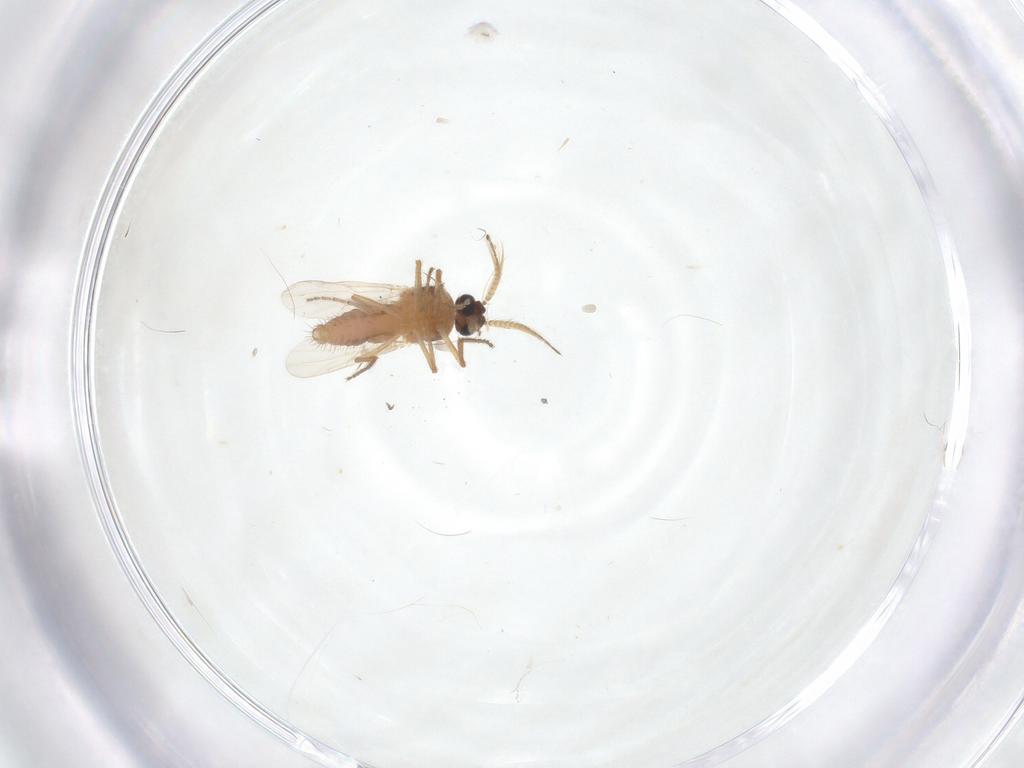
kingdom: Animalia
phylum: Arthropoda
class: Insecta
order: Diptera
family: Ceratopogonidae
